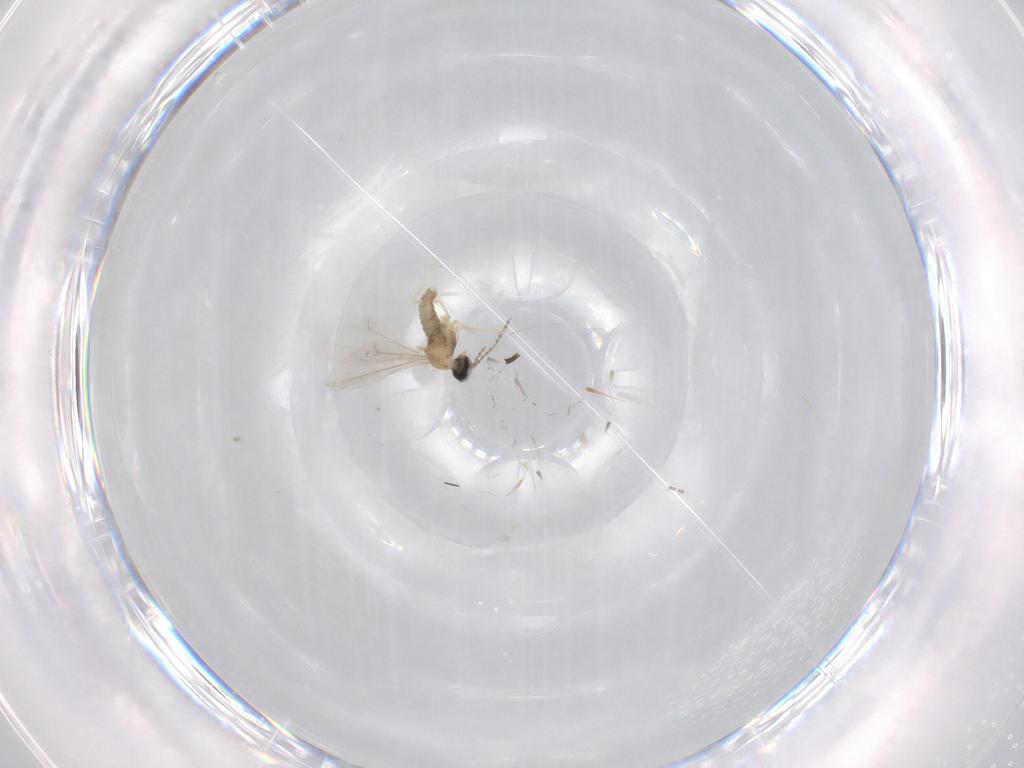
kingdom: Animalia
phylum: Arthropoda
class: Insecta
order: Diptera
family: Cecidomyiidae
